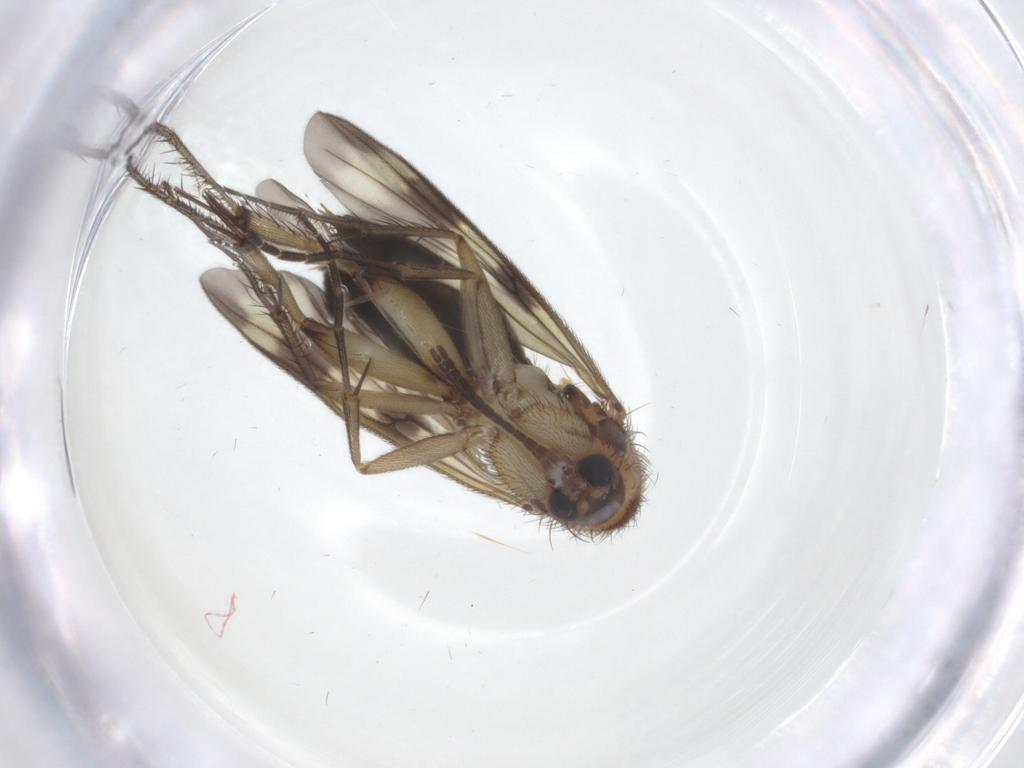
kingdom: Animalia
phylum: Arthropoda
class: Insecta
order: Diptera
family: Mycetophilidae
